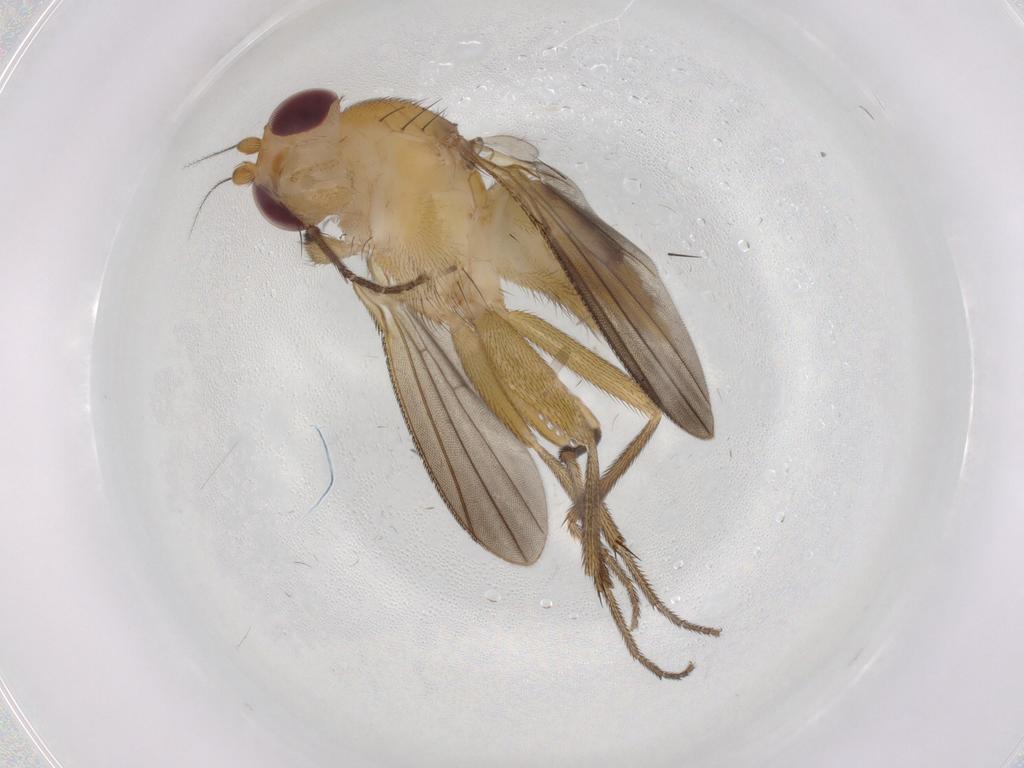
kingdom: Animalia
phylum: Arthropoda
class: Insecta
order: Diptera
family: Clusiidae
